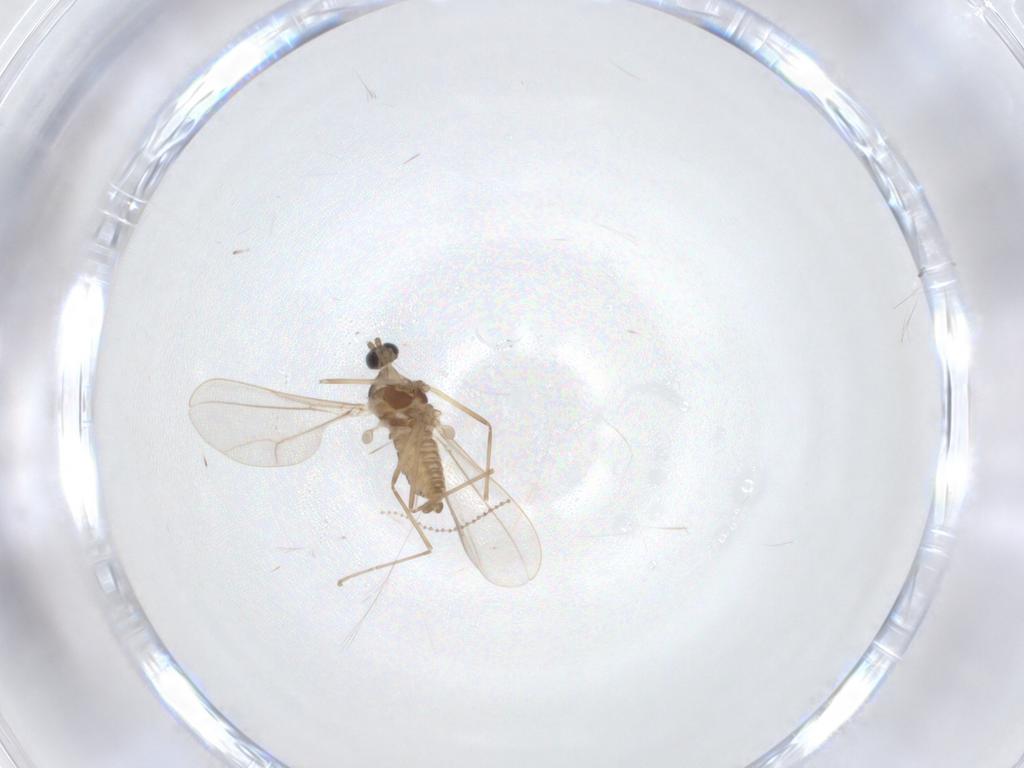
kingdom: Animalia
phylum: Arthropoda
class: Insecta
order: Diptera
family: Cecidomyiidae
